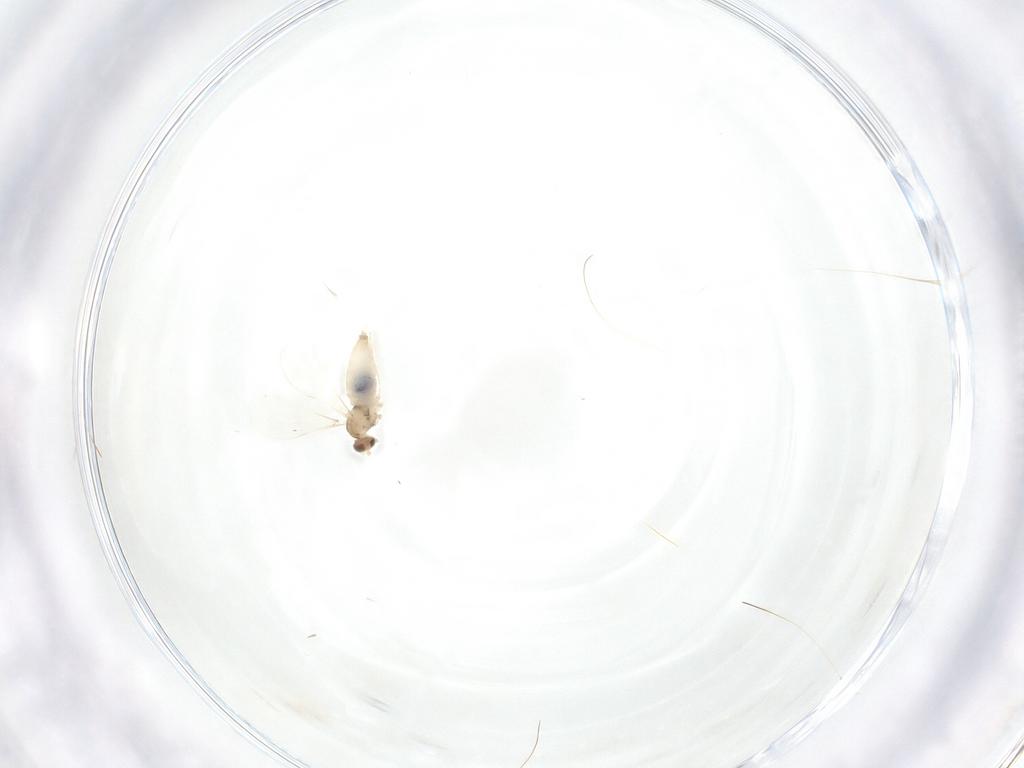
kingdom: Animalia
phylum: Arthropoda
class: Insecta
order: Diptera
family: Cecidomyiidae
